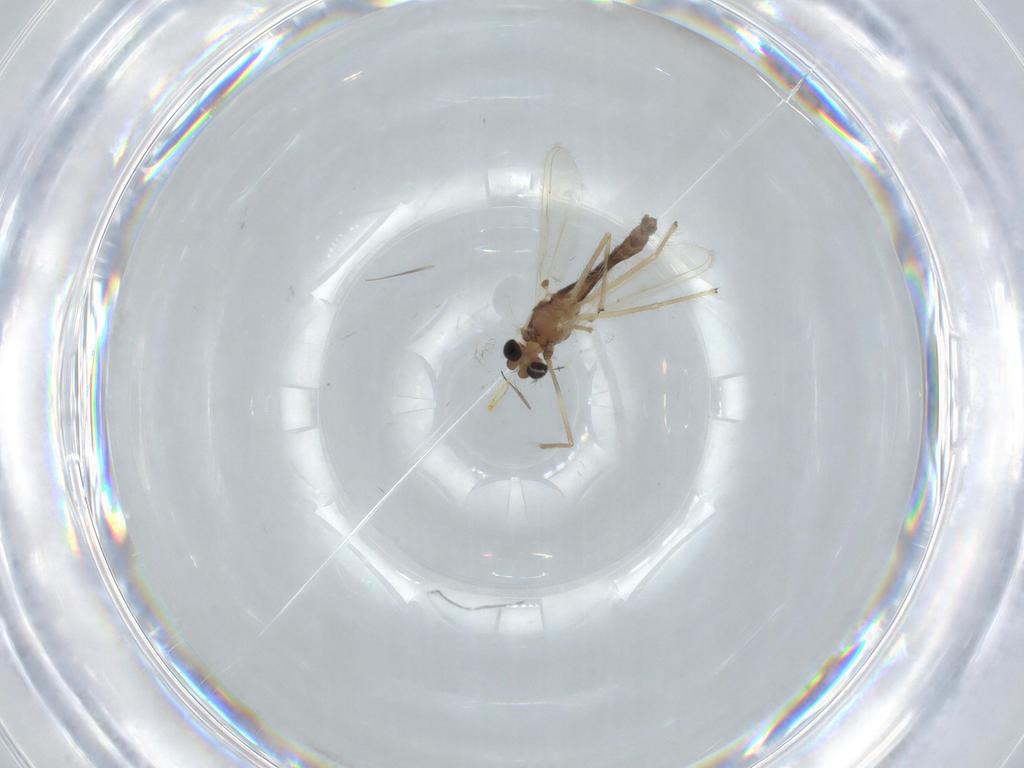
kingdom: Animalia
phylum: Arthropoda
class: Insecta
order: Diptera
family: Chironomidae
